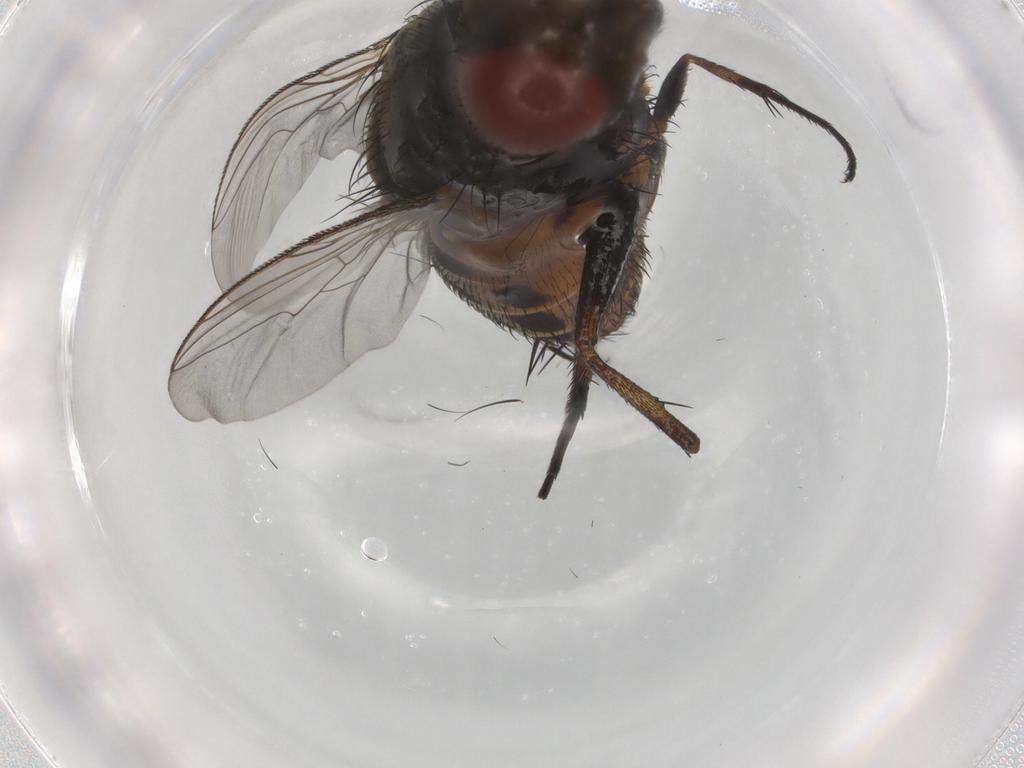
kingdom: Animalia
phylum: Arthropoda
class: Insecta
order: Diptera
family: Sarcophagidae
